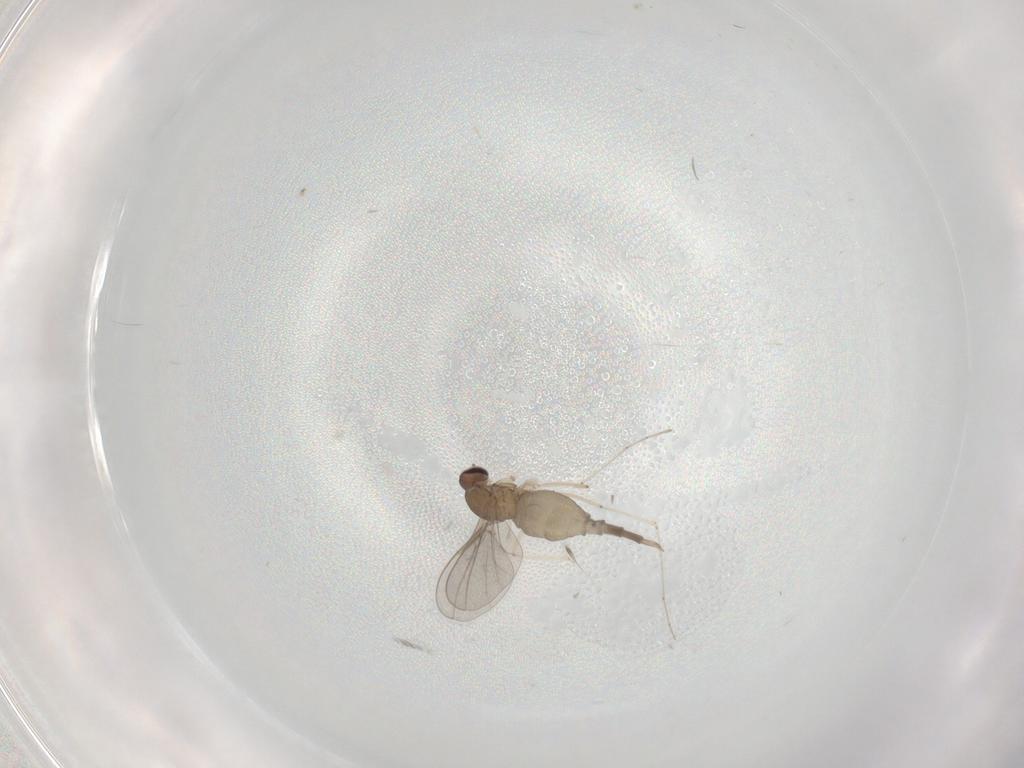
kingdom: Animalia
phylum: Arthropoda
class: Insecta
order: Diptera
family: Cecidomyiidae
